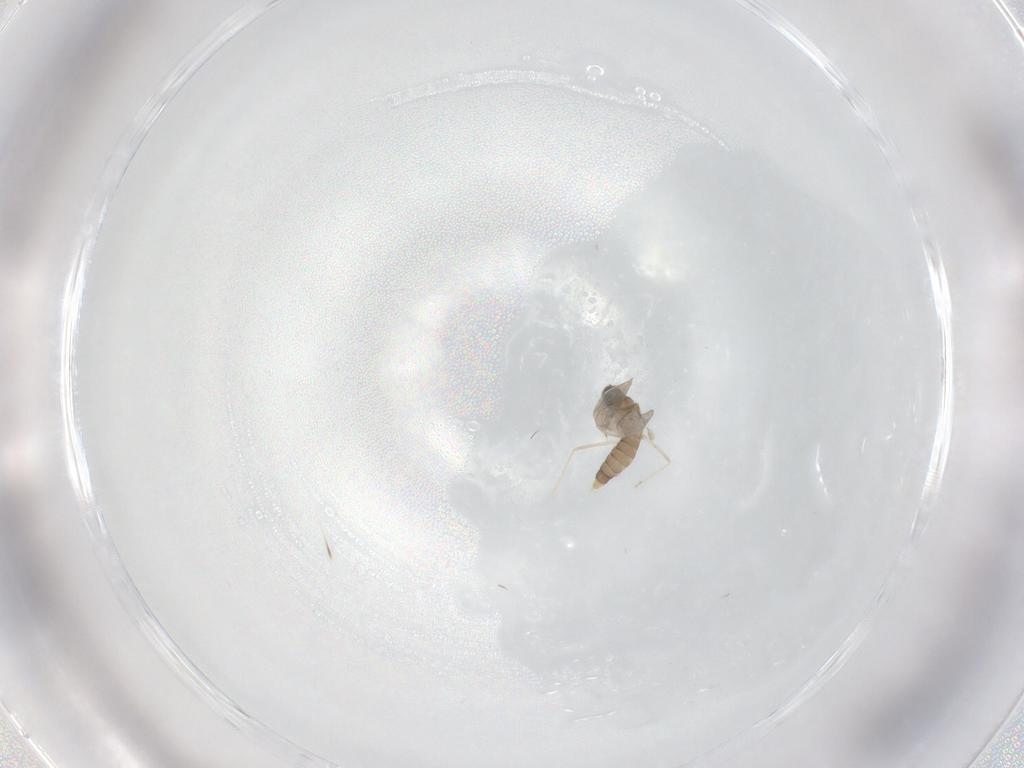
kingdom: Animalia
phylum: Arthropoda
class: Insecta
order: Diptera
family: Cecidomyiidae
